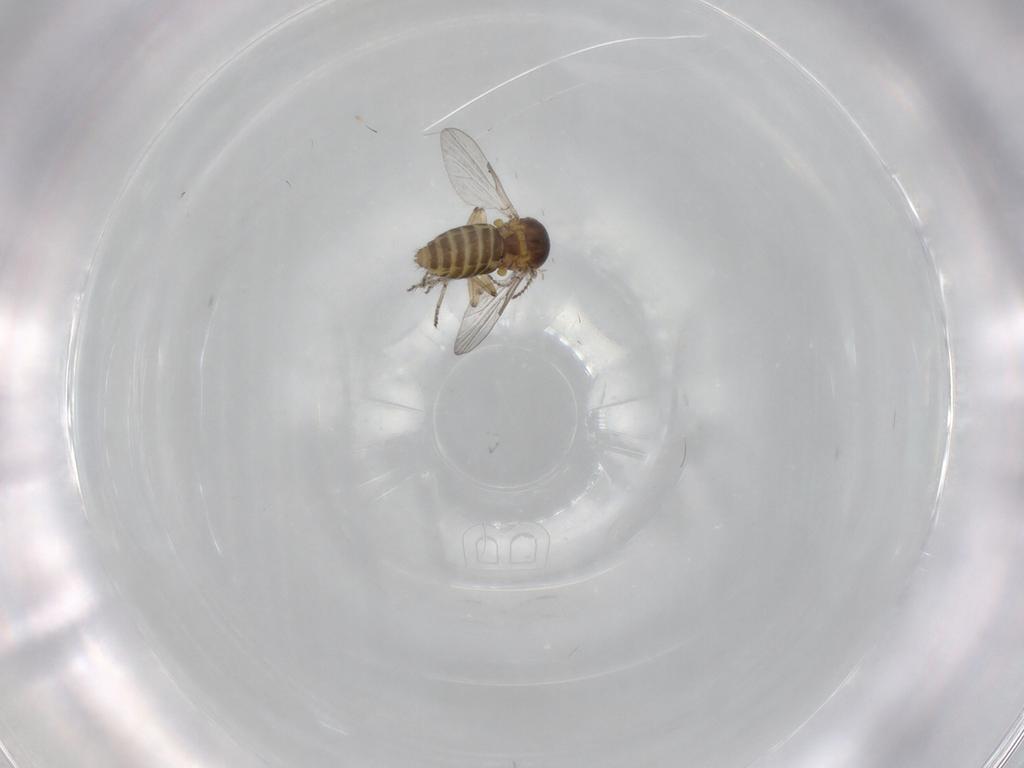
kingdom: Animalia
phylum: Arthropoda
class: Insecta
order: Diptera
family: Ceratopogonidae
